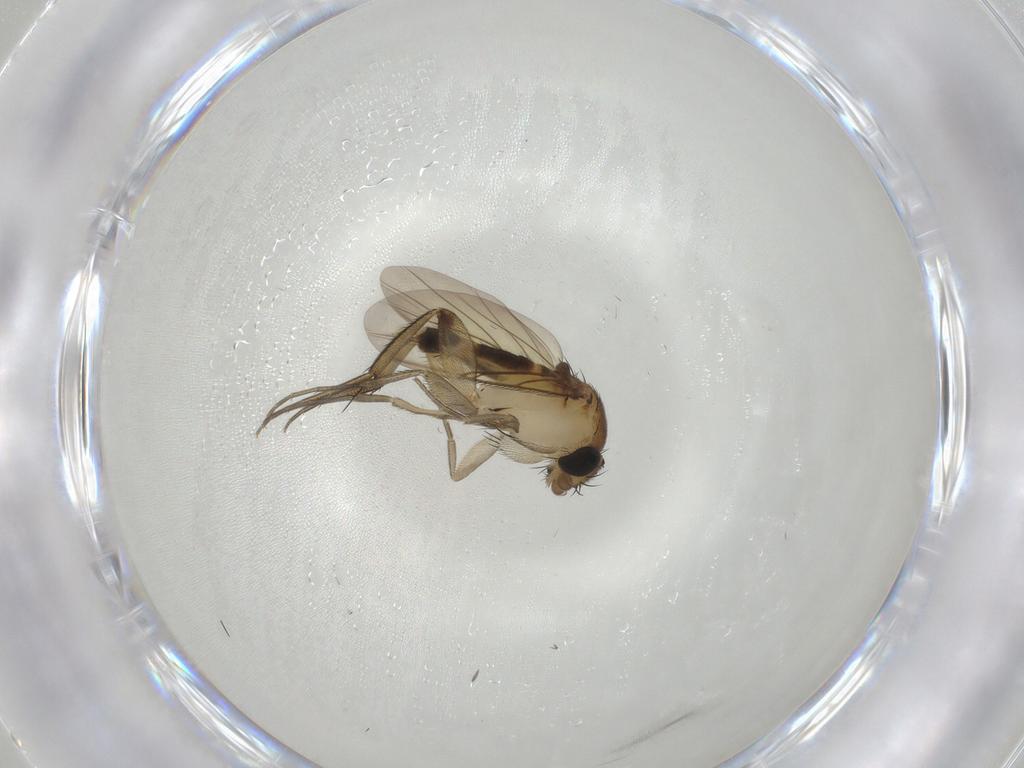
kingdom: Animalia
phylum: Arthropoda
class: Insecta
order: Diptera
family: Phoridae
